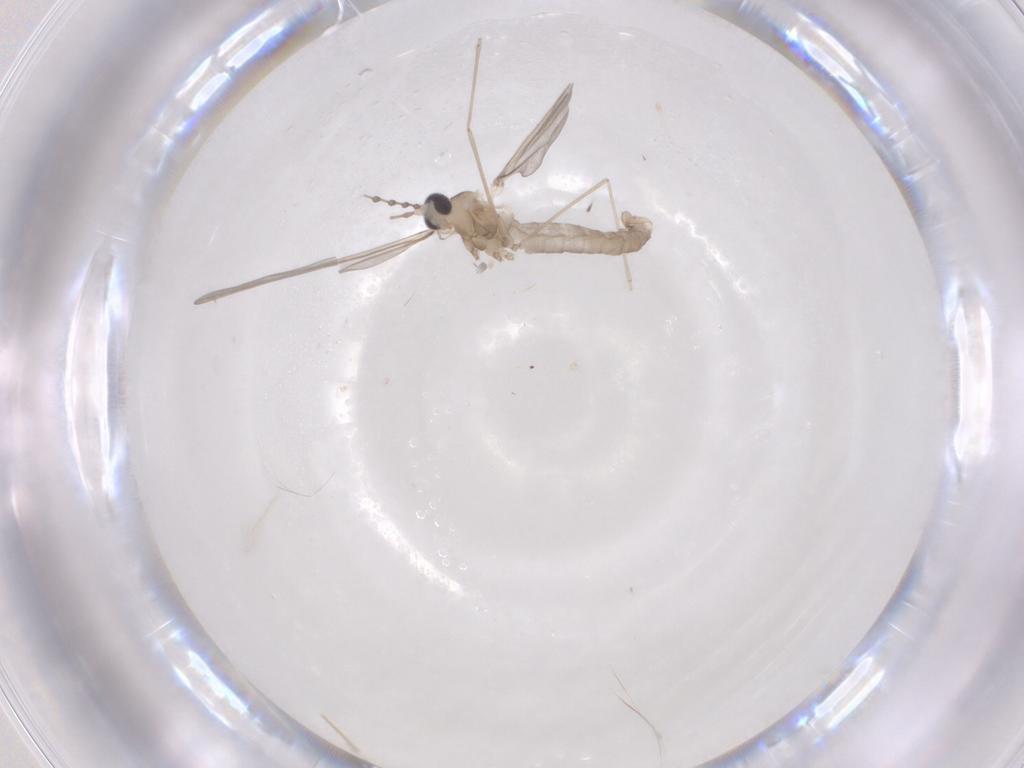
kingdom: Animalia
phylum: Arthropoda
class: Insecta
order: Diptera
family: Cecidomyiidae
